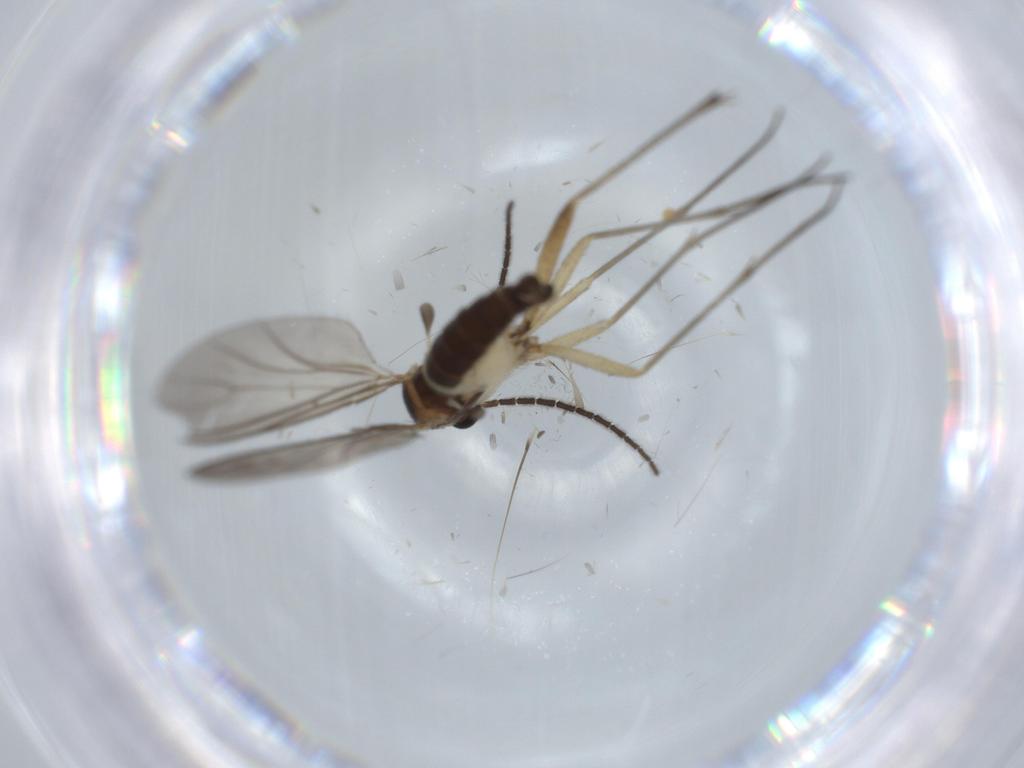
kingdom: Animalia
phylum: Arthropoda
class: Insecta
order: Diptera
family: Sciaridae
